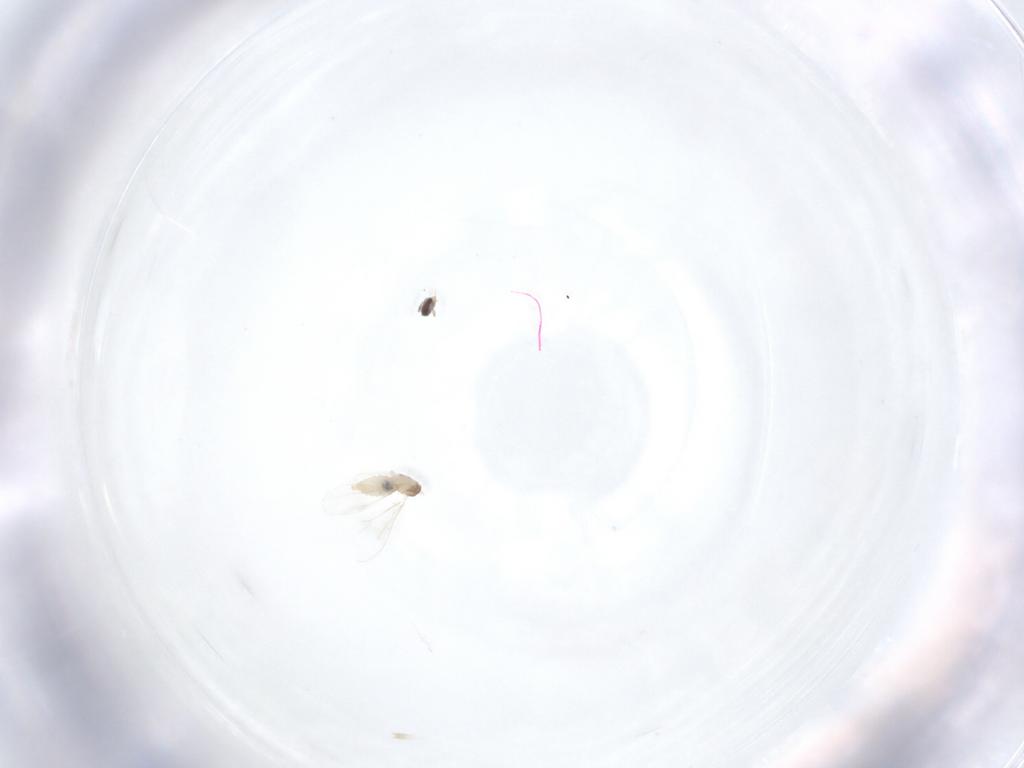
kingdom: Animalia
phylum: Arthropoda
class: Insecta
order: Diptera
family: Cecidomyiidae
